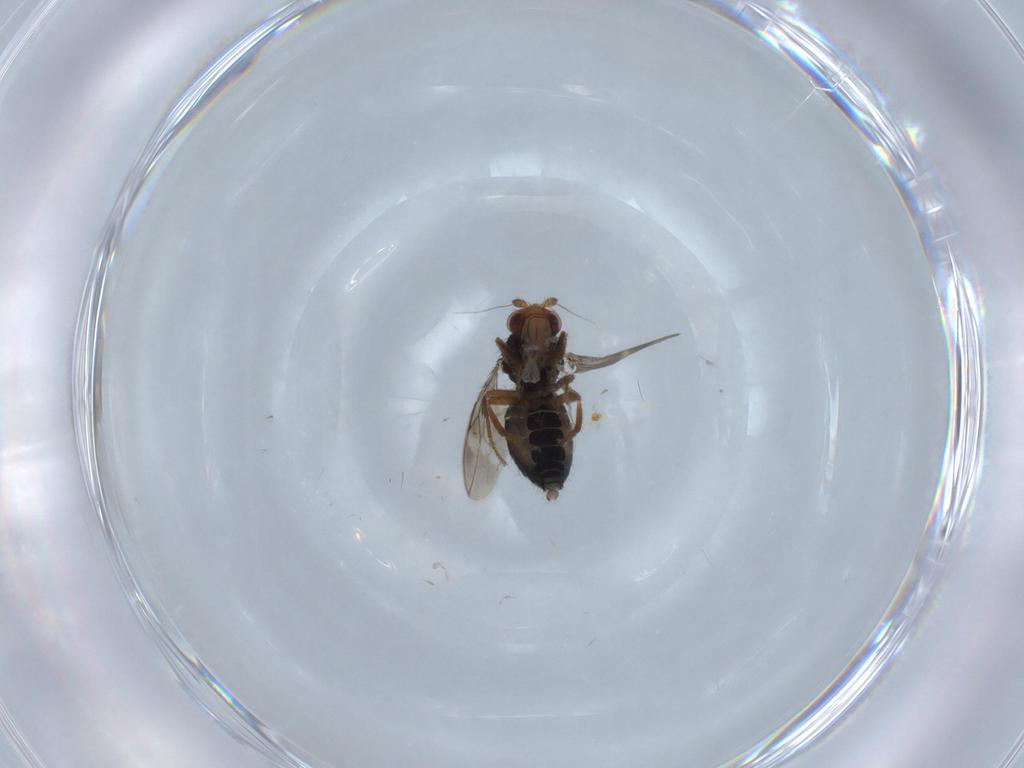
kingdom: Animalia
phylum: Arthropoda
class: Insecta
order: Diptera
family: Sphaeroceridae
